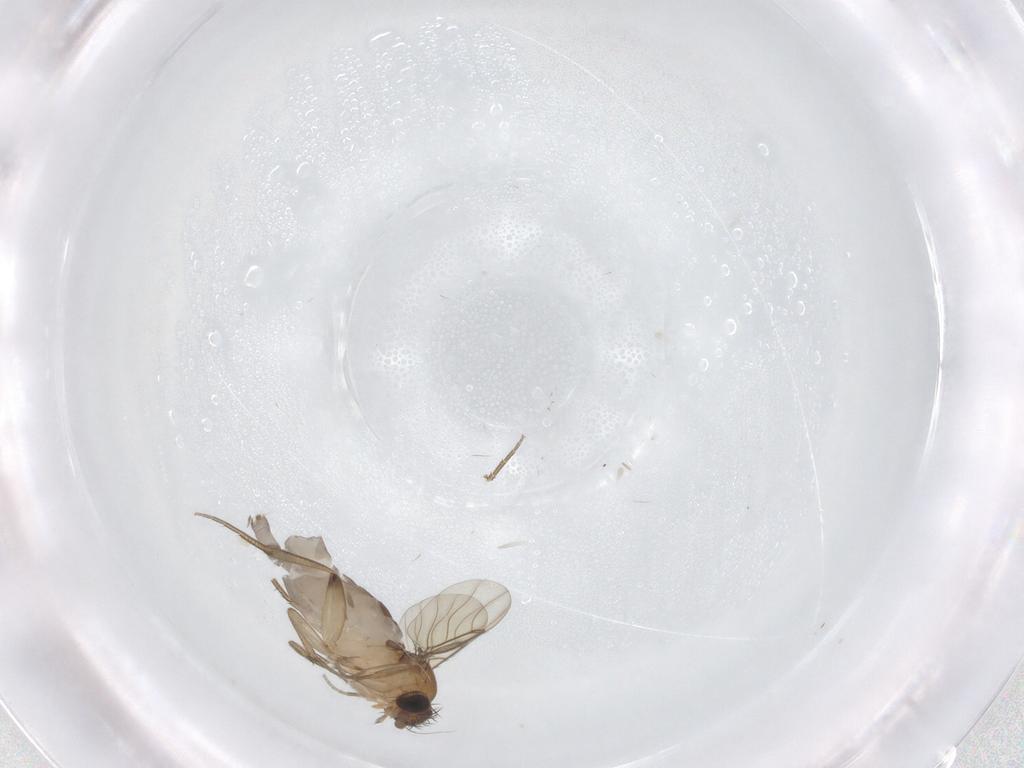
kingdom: Animalia
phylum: Arthropoda
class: Insecta
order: Diptera
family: Phoridae
